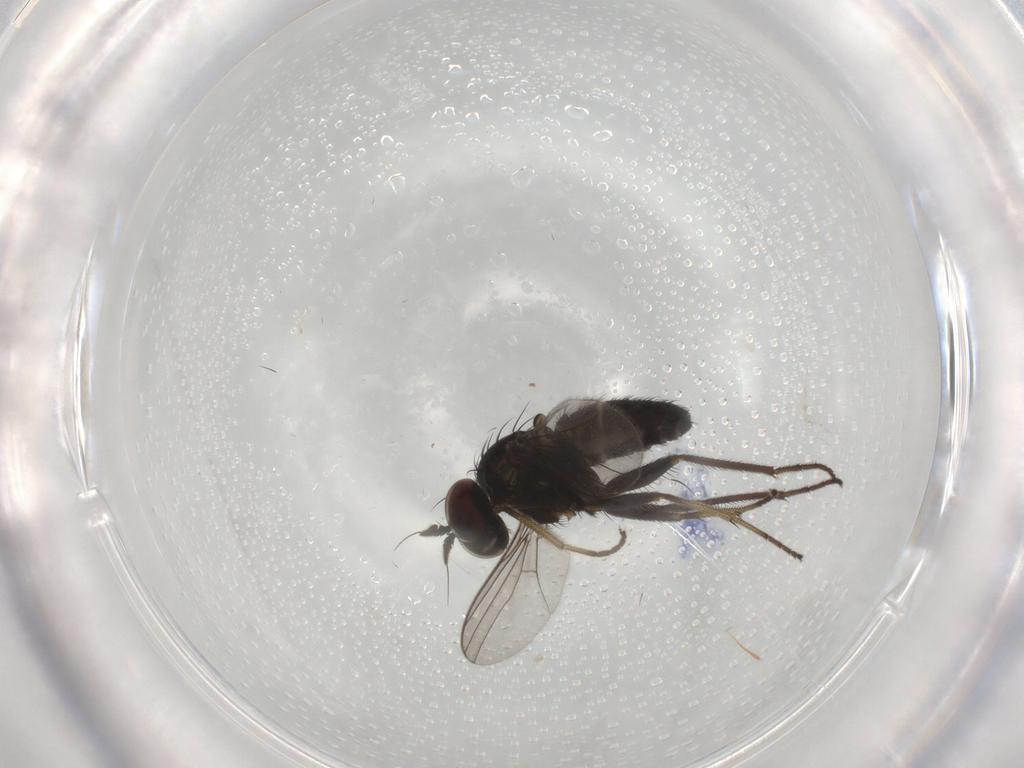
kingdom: Animalia
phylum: Arthropoda
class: Insecta
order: Diptera
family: Dolichopodidae
